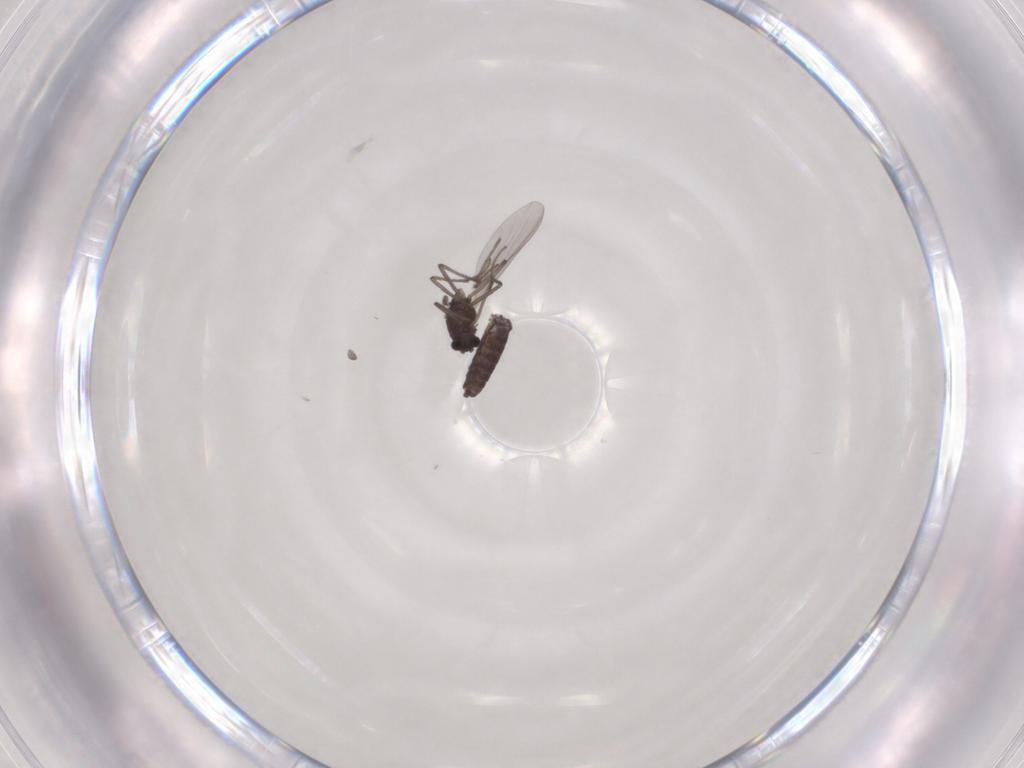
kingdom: Animalia
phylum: Arthropoda
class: Insecta
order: Diptera
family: Chironomidae
